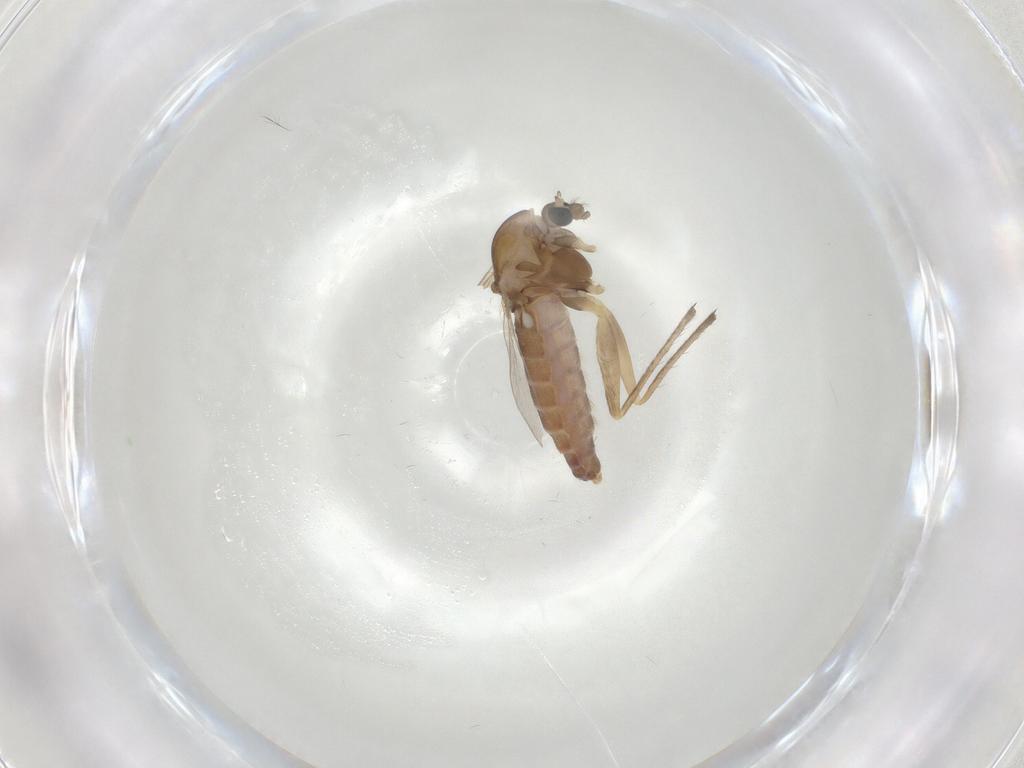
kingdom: Animalia
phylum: Arthropoda
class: Insecta
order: Diptera
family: Chironomidae
